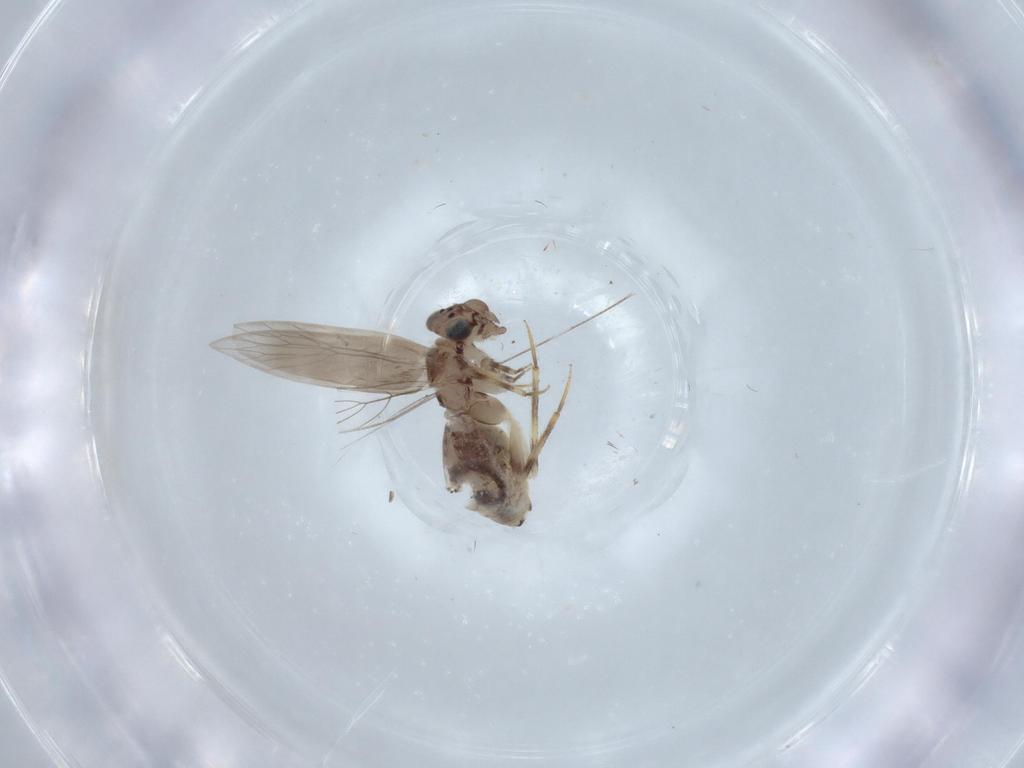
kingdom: Animalia
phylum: Arthropoda
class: Insecta
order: Psocodea
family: Lepidopsocidae
